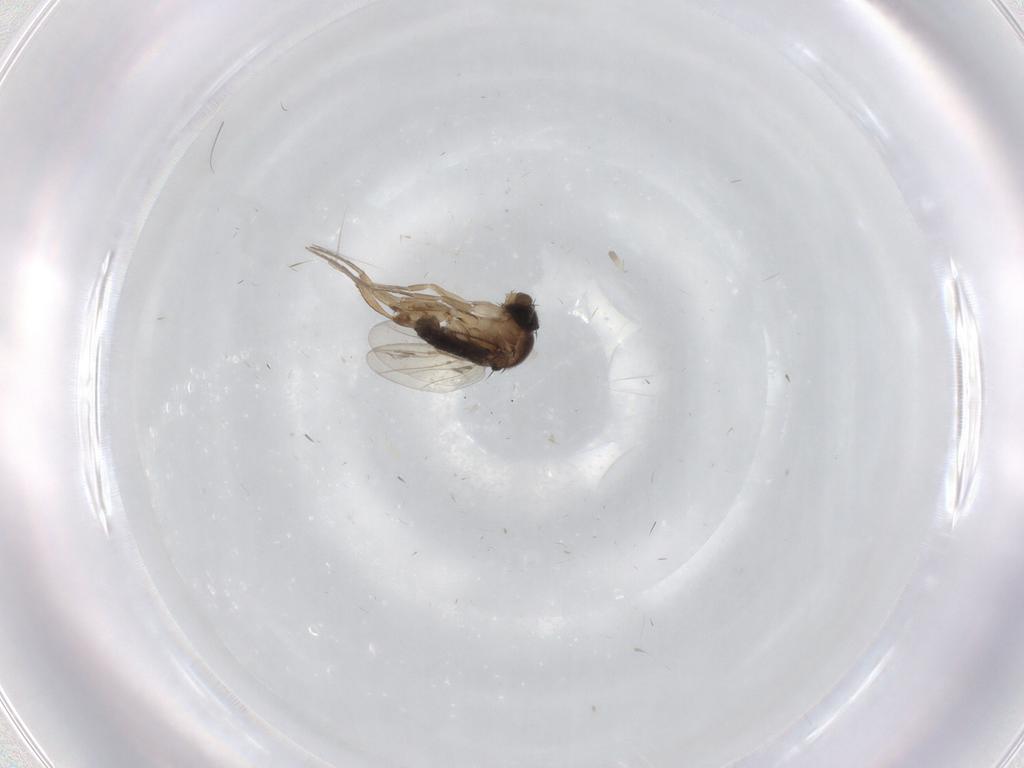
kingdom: Animalia
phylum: Arthropoda
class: Insecta
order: Diptera
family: Phoridae
